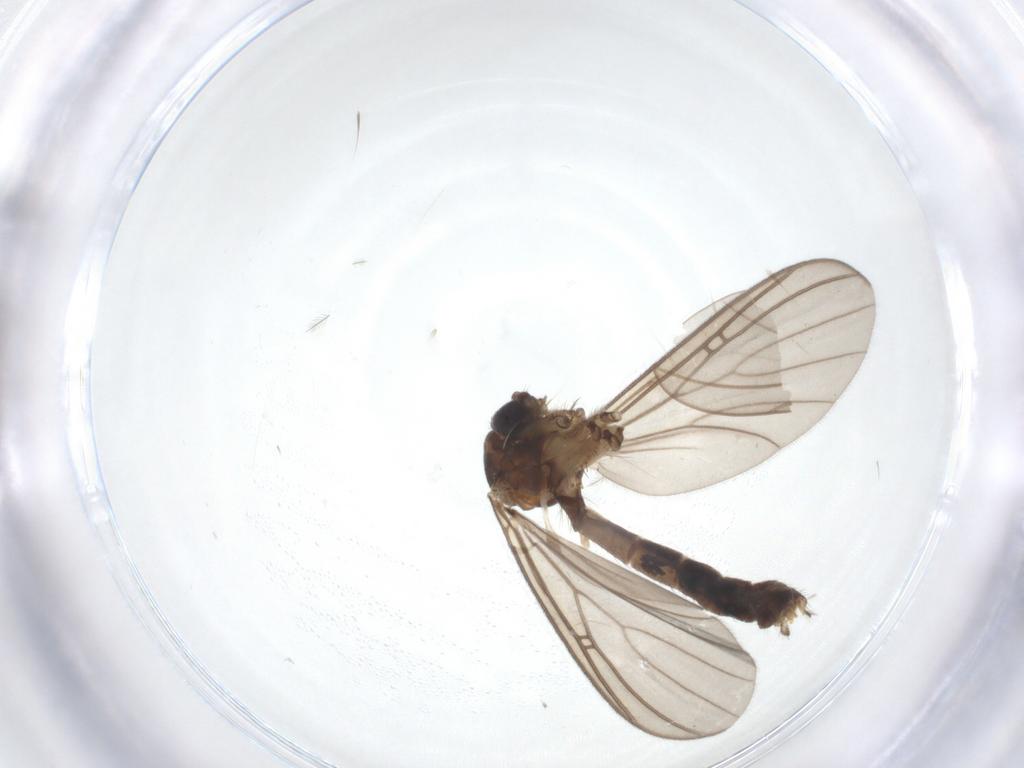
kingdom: Animalia
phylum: Arthropoda
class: Insecta
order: Diptera
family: Mycetophilidae
